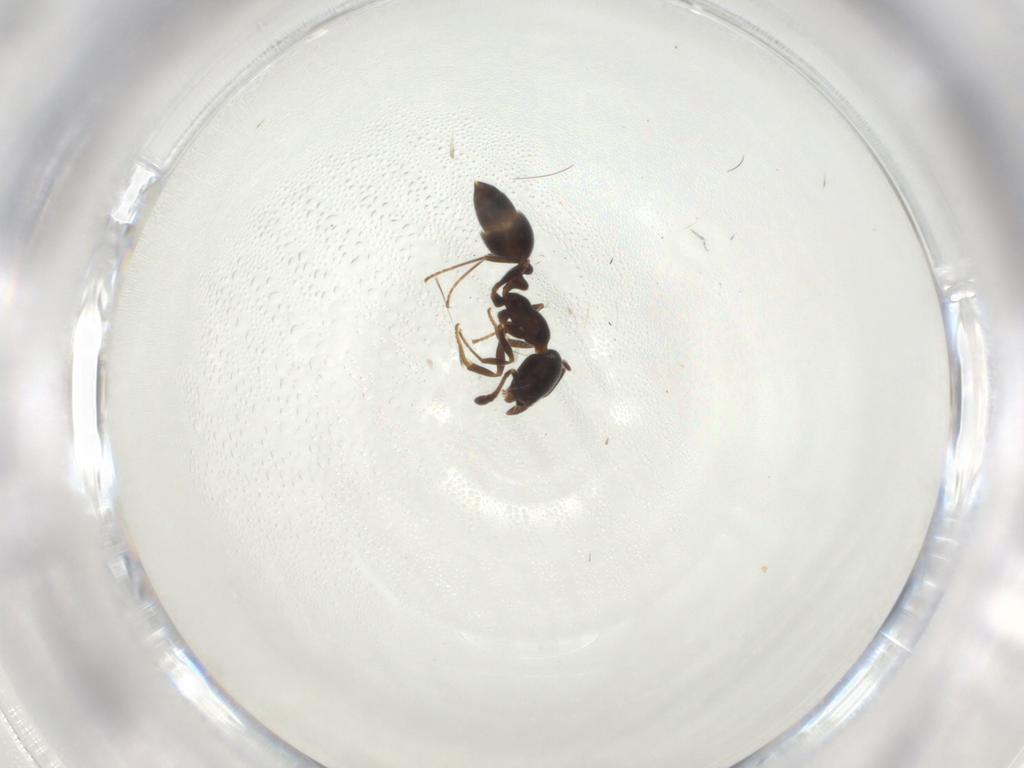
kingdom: Animalia
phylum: Arthropoda
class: Insecta
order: Hymenoptera
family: Formicidae
